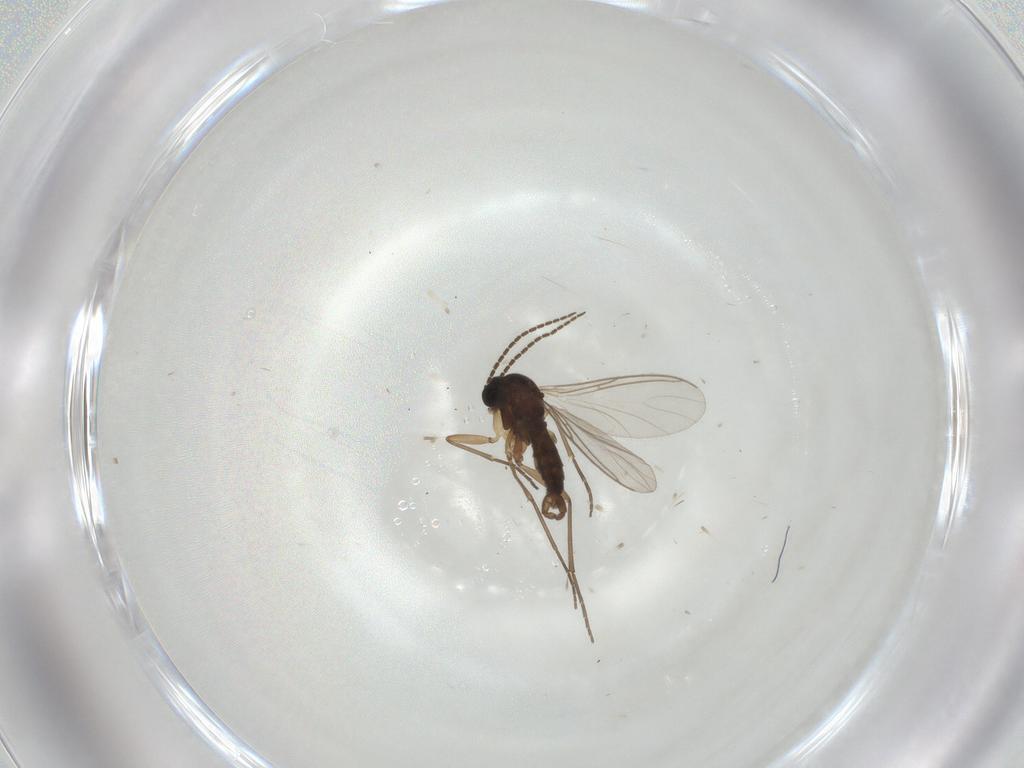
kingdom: Animalia
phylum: Arthropoda
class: Insecta
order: Diptera
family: Sciaridae
